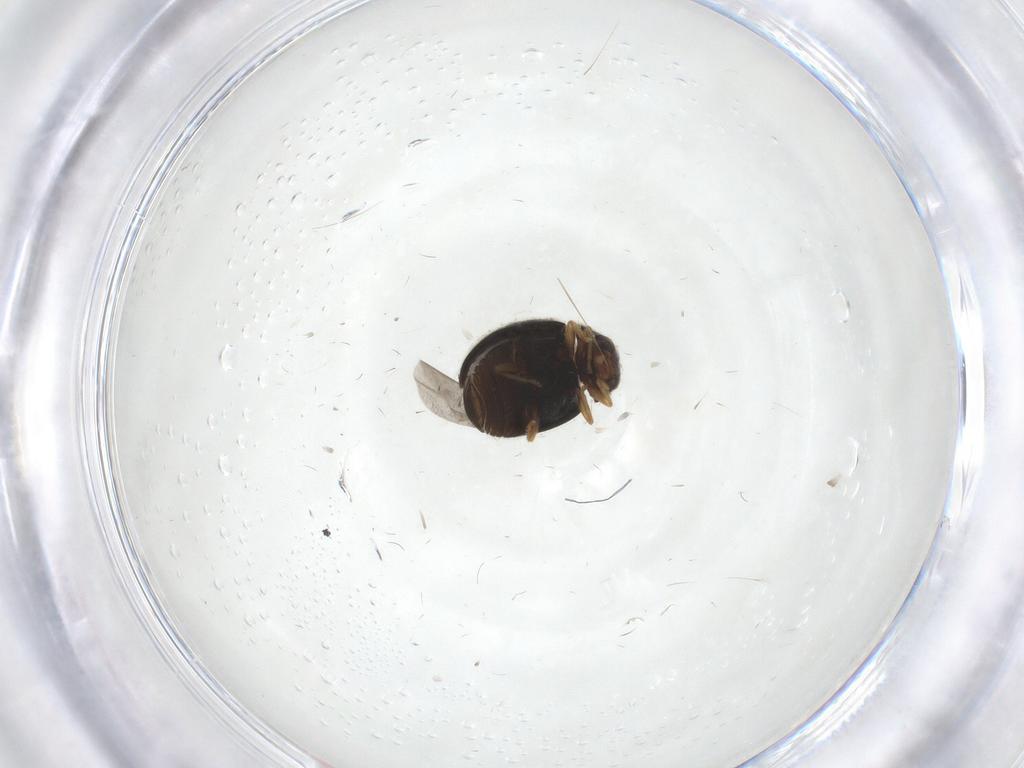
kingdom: Animalia
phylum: Arthropoda
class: Insecta
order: Coleoptera
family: Coccinellidae
